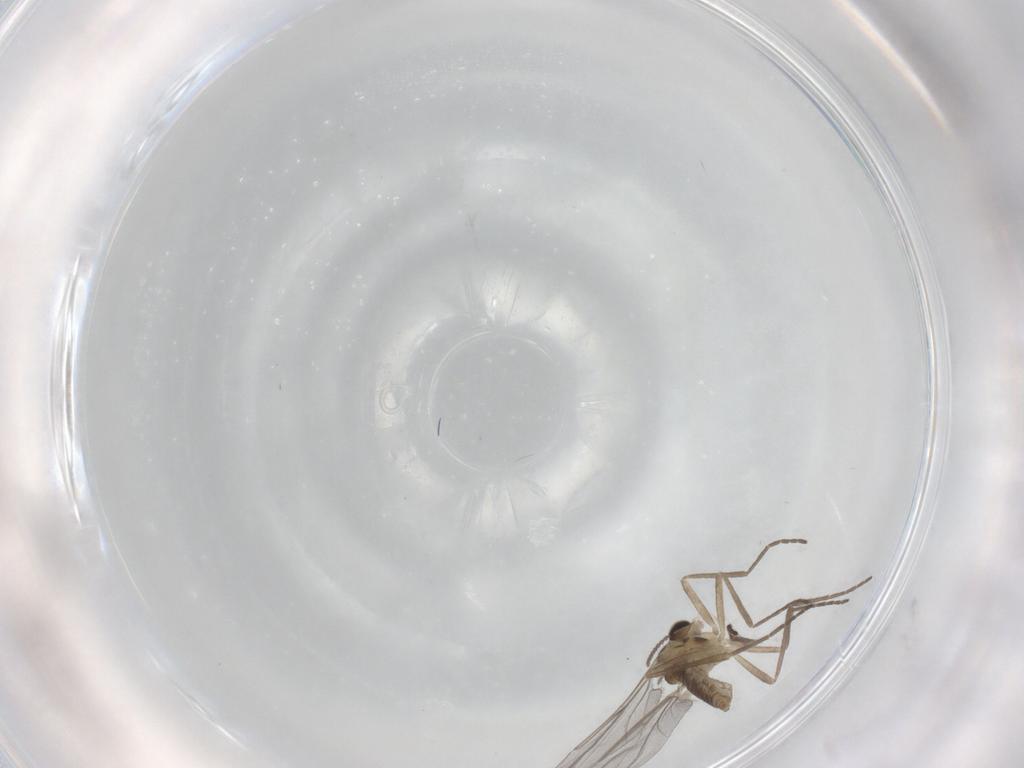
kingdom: Animalia
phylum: Arthropoda
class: Insecta
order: Diptera
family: Cecidomyiidae
